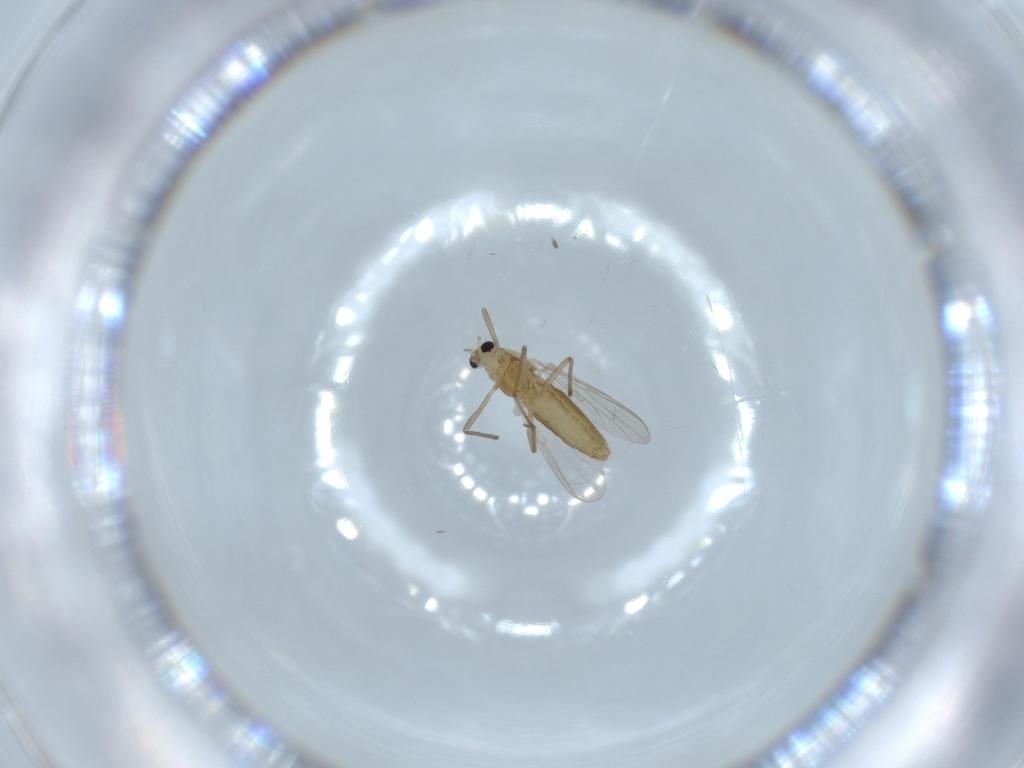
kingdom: Animalia
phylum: Arthropoda
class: Insecta
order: Diptera
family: Chironomidae
